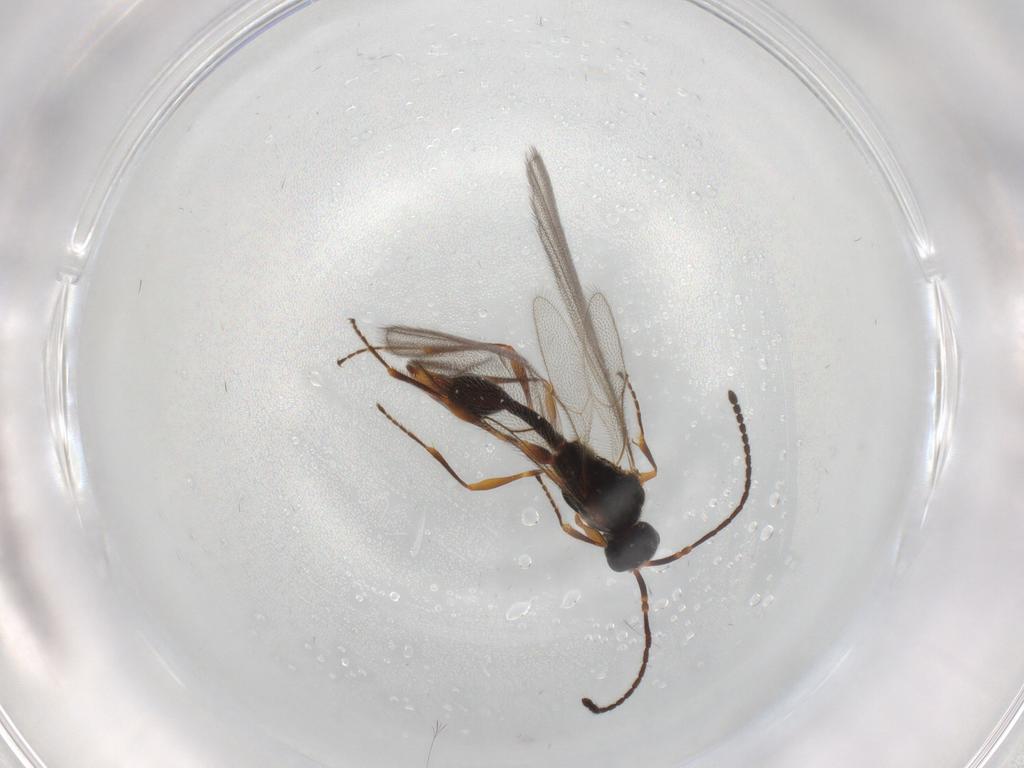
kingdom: Animalia
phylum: Arthropoda
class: Insecta
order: Hymenoptera
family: Diapriidae
